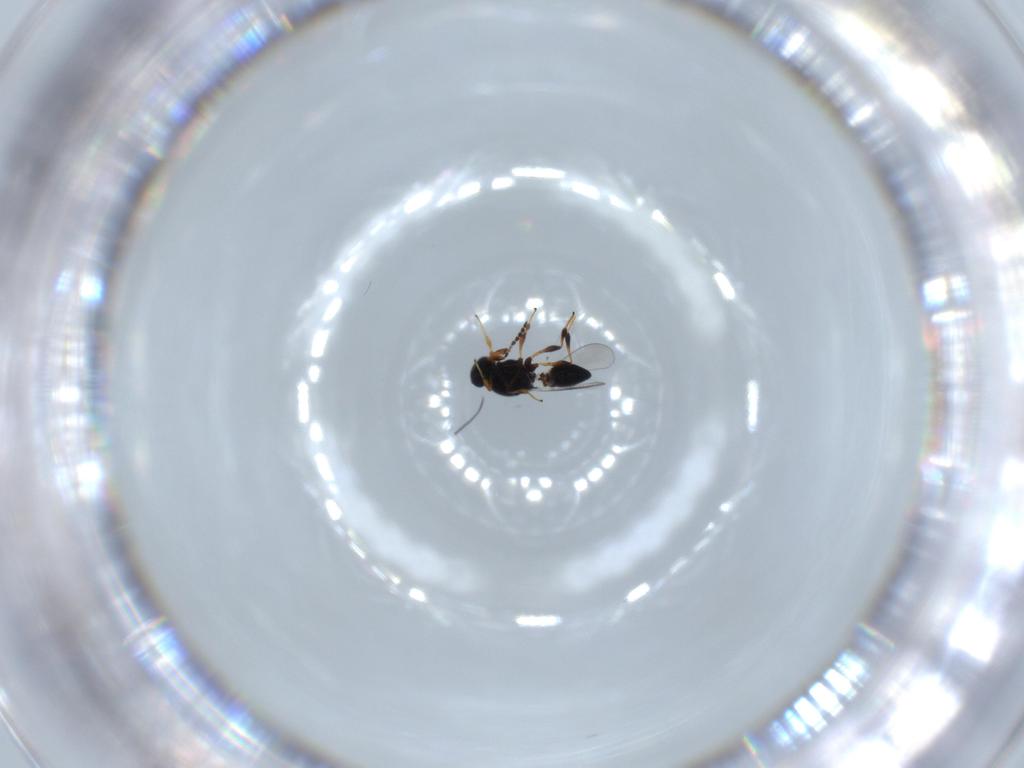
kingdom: Animalia
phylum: Arthropoda
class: Insecta
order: Hymenoptera
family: Platygastridae
